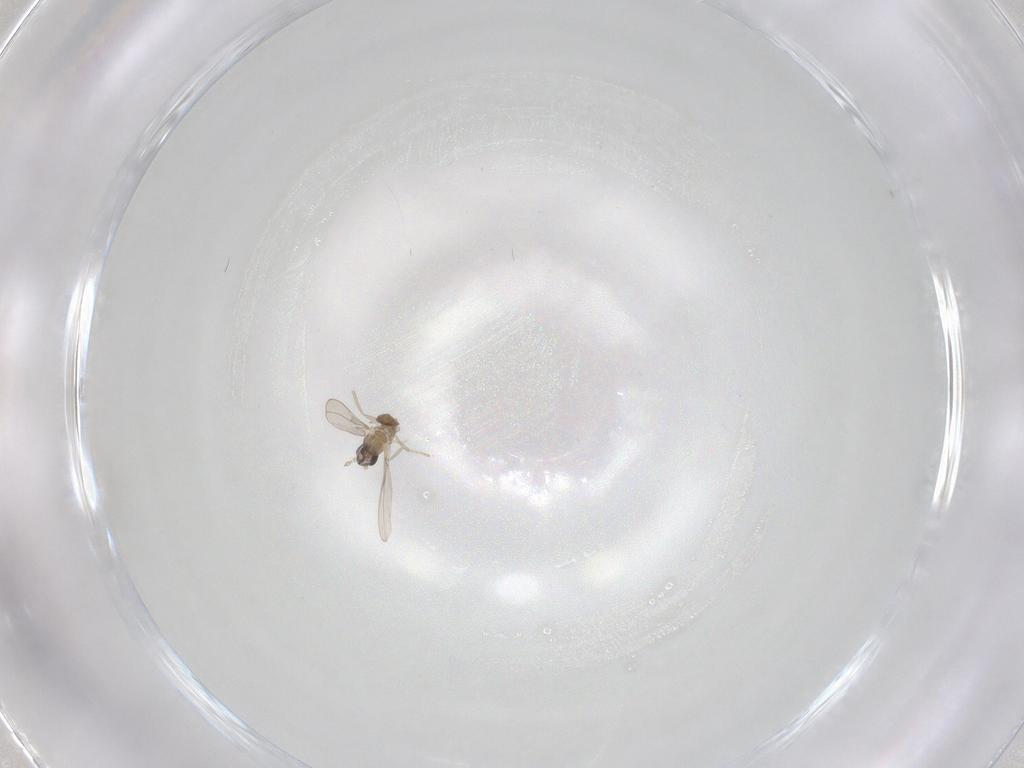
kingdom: Animalia
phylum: Arthropoda
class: Insecta
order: Diptera
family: Cecidomyiidae
